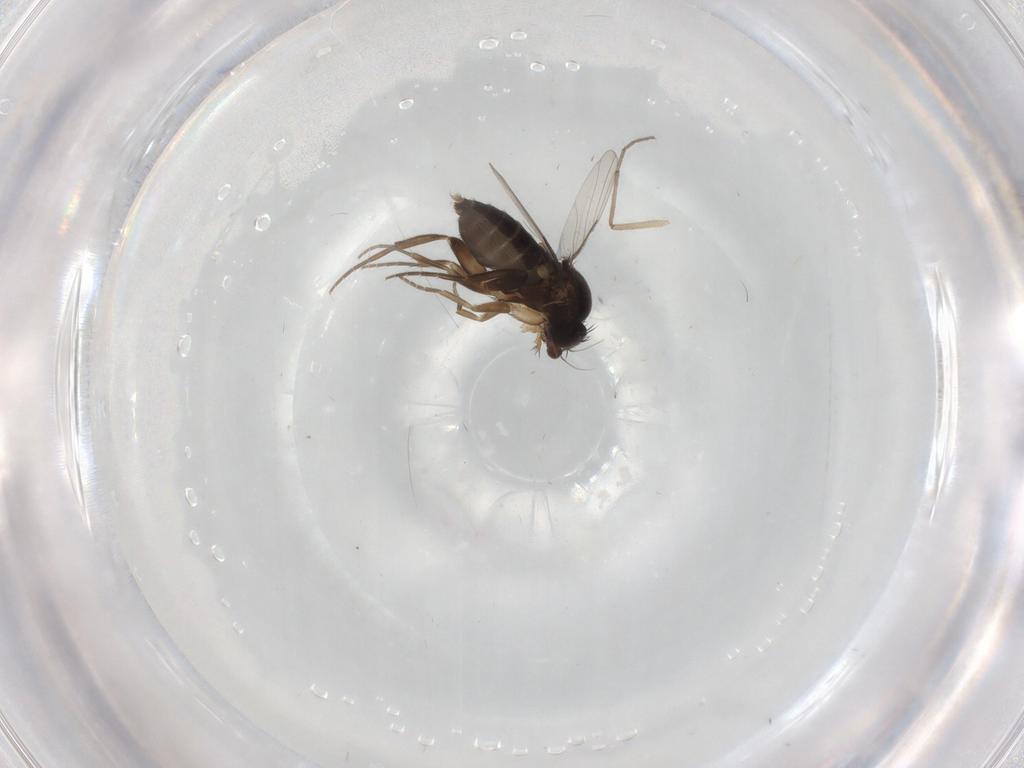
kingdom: Animalia
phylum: Arthropoda
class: Insecta
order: Diptera
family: Phoridae
